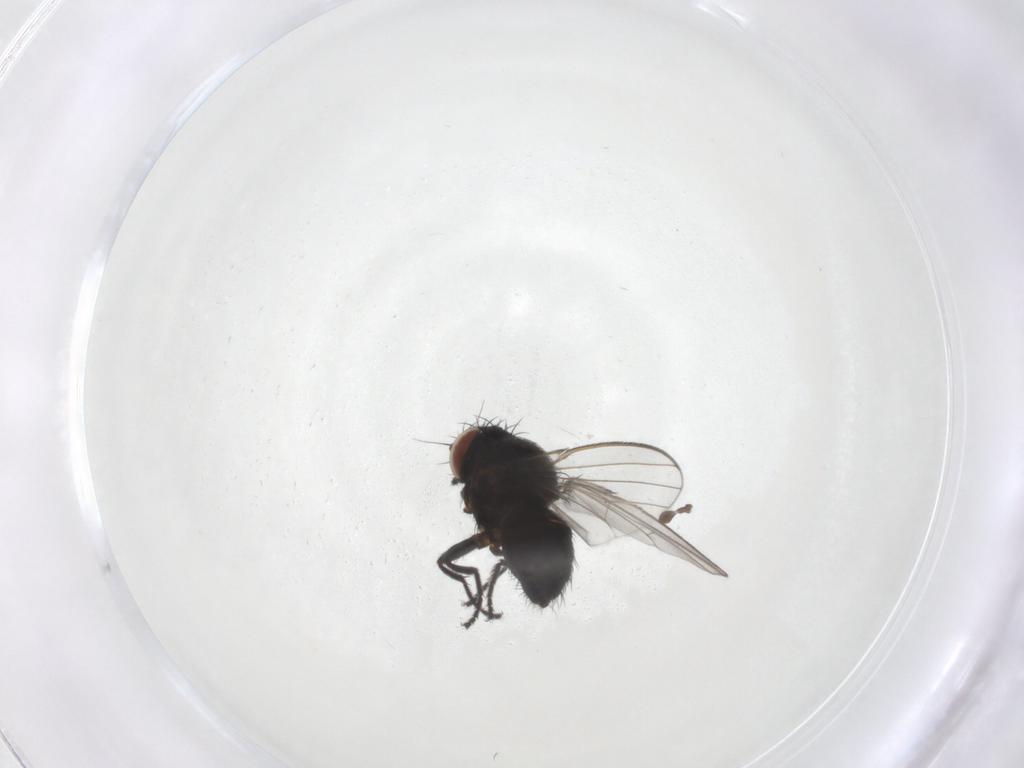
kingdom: Animalia
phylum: Arthropoda
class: Insecta
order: Diptera
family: Milichiidae
